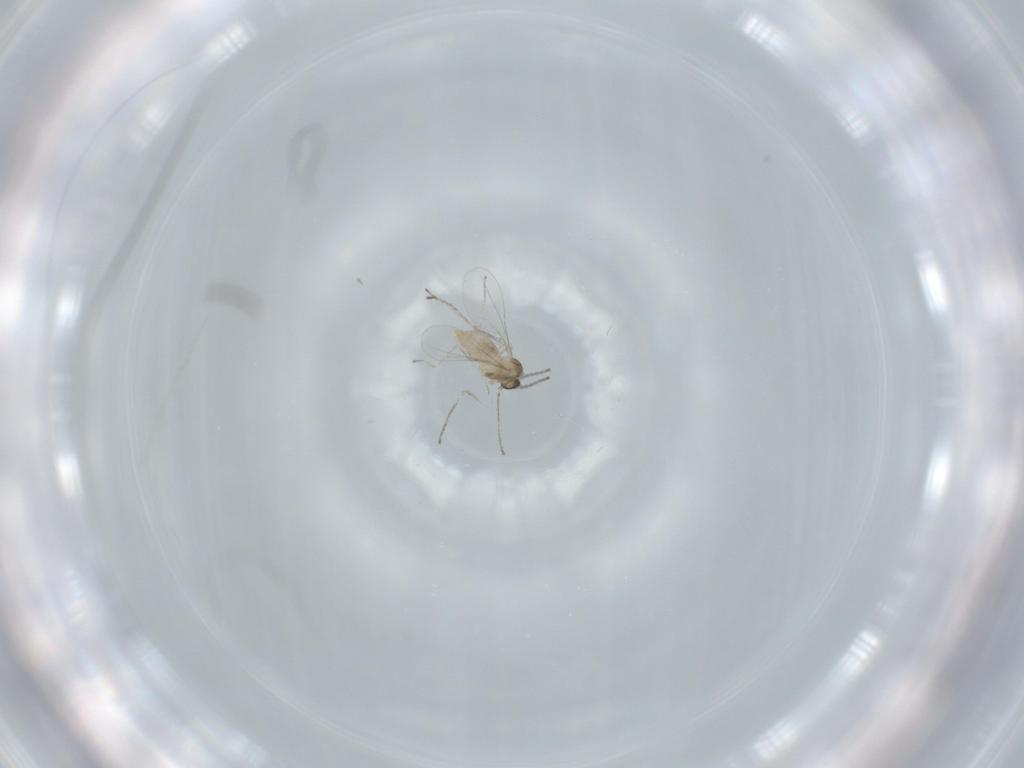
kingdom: Animalia
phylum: Arthropoda
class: Insecta
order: Diptera
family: Cecidomyiidae
